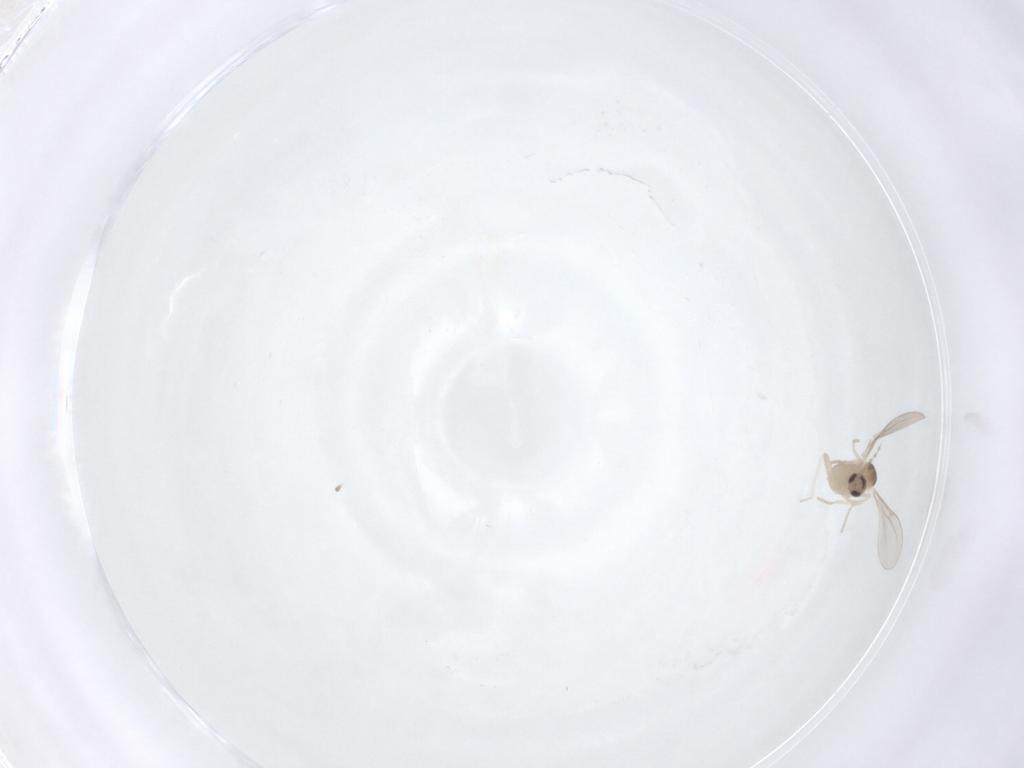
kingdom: Animalia
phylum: Arthropoda
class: Insecta
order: Diptera
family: Cecidomyiidae
